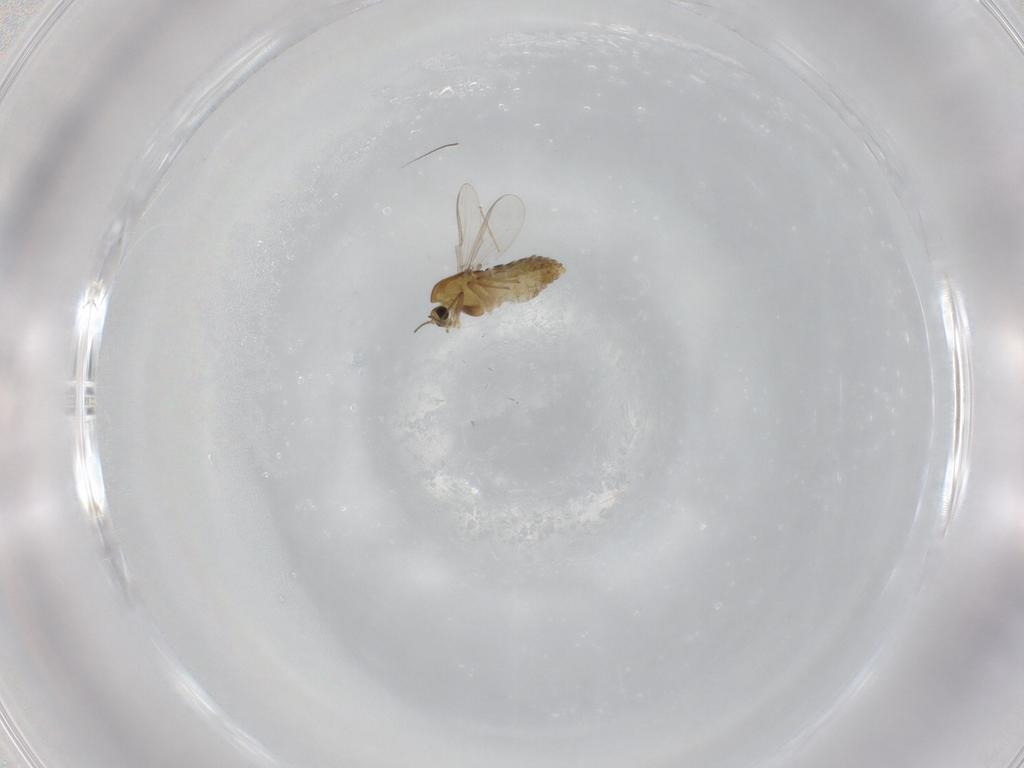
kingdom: Animalia
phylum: Arthropoda
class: Insecta
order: Diptera
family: Chironomidae
